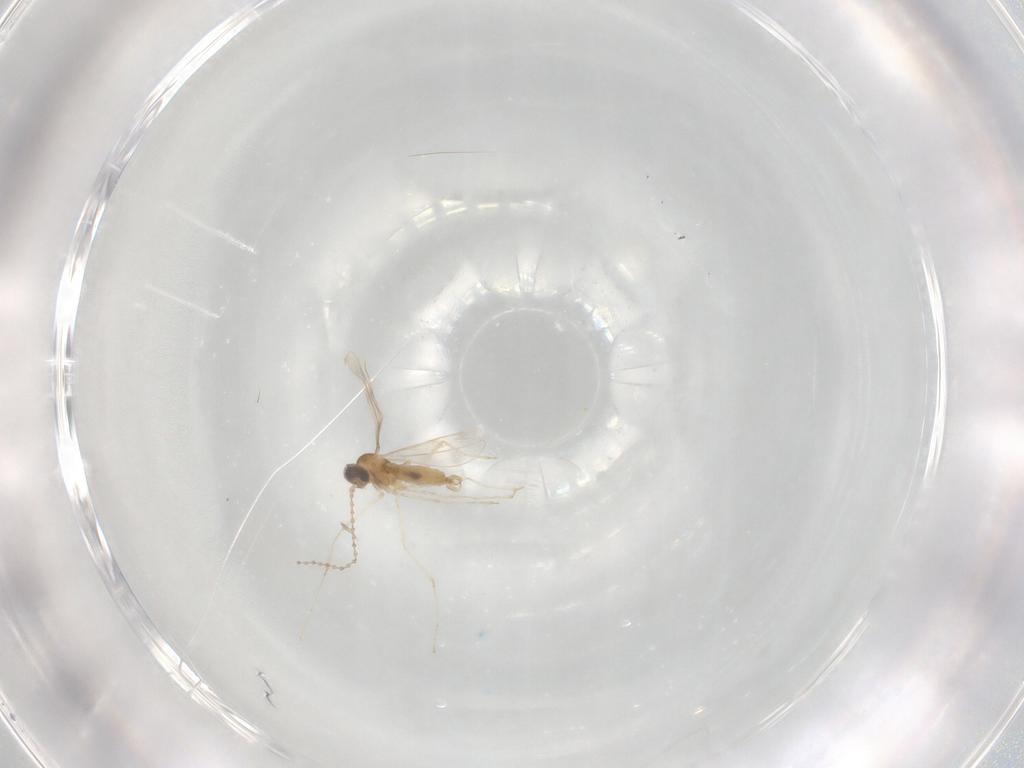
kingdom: Animalia
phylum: Arthropoda
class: Insecta
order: Diptera
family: Cecidomyiidae
